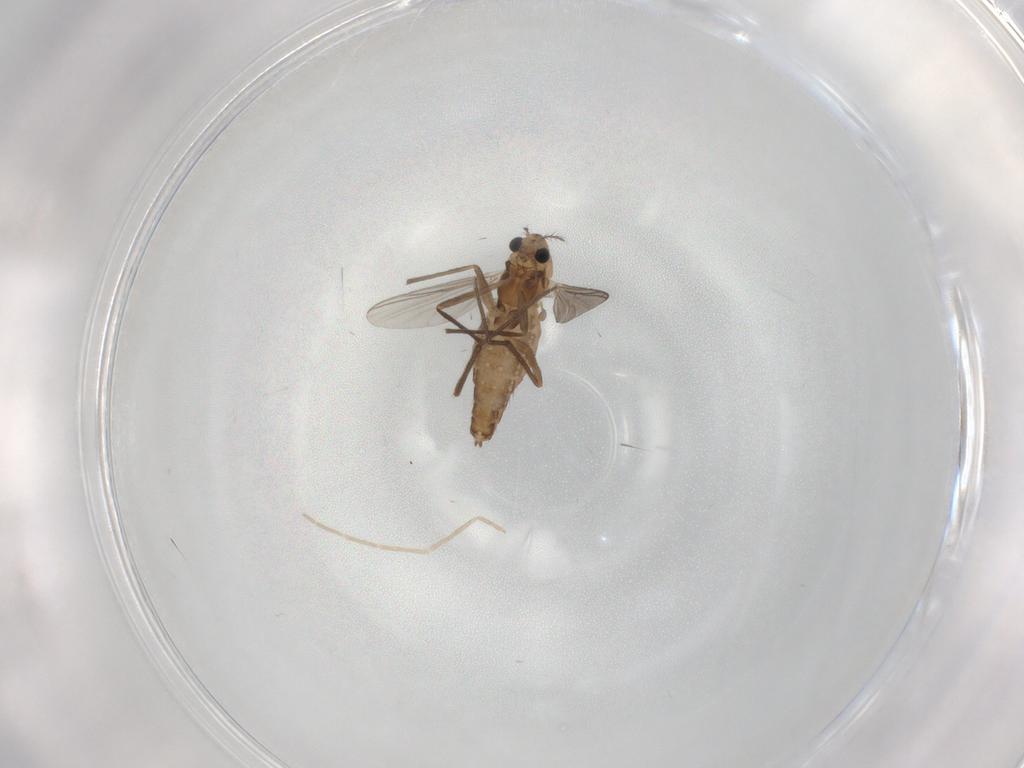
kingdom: Animalia
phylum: Arthropoda
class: Insecta
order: Diptera
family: Chironomidae
